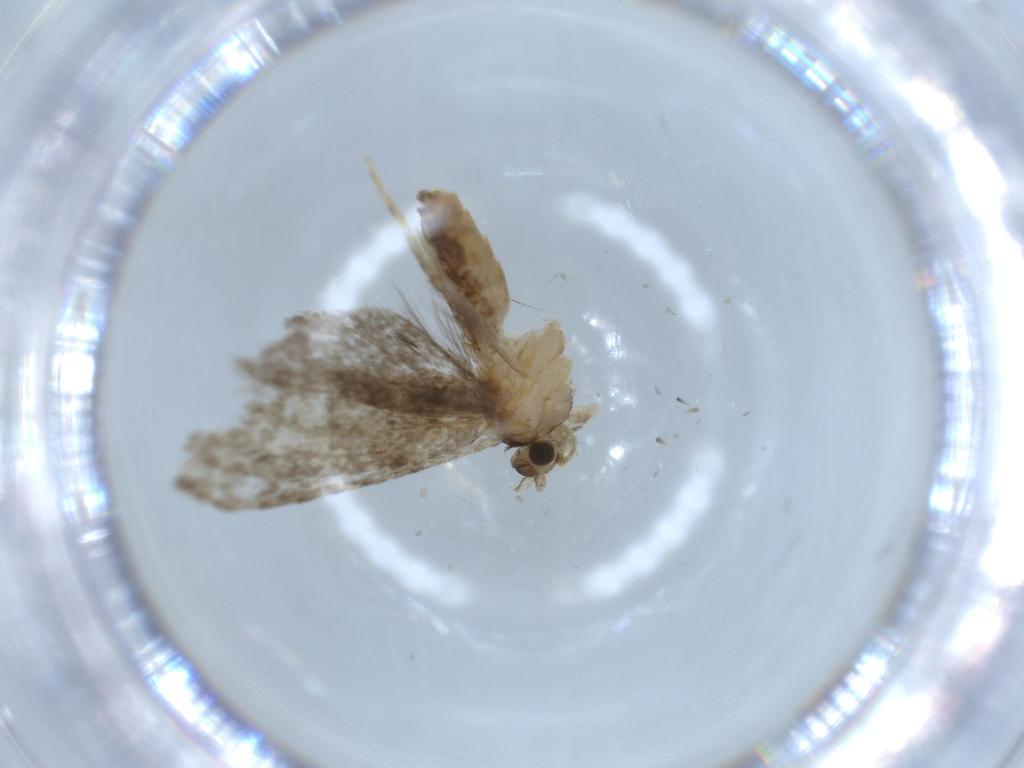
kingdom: Animalia
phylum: Arthropoda
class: Insecta
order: Lepidoptera
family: Tineidae
